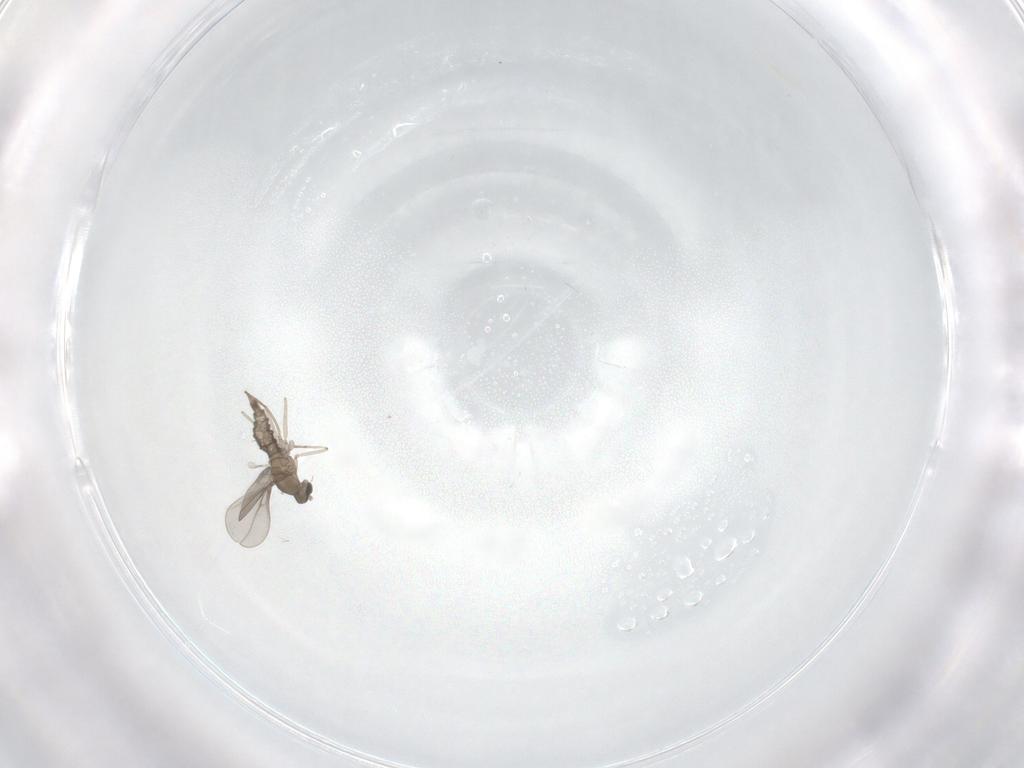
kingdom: Animalia
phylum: Arthropoda
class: Insecta
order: Diptera
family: Cecidomyiidae
